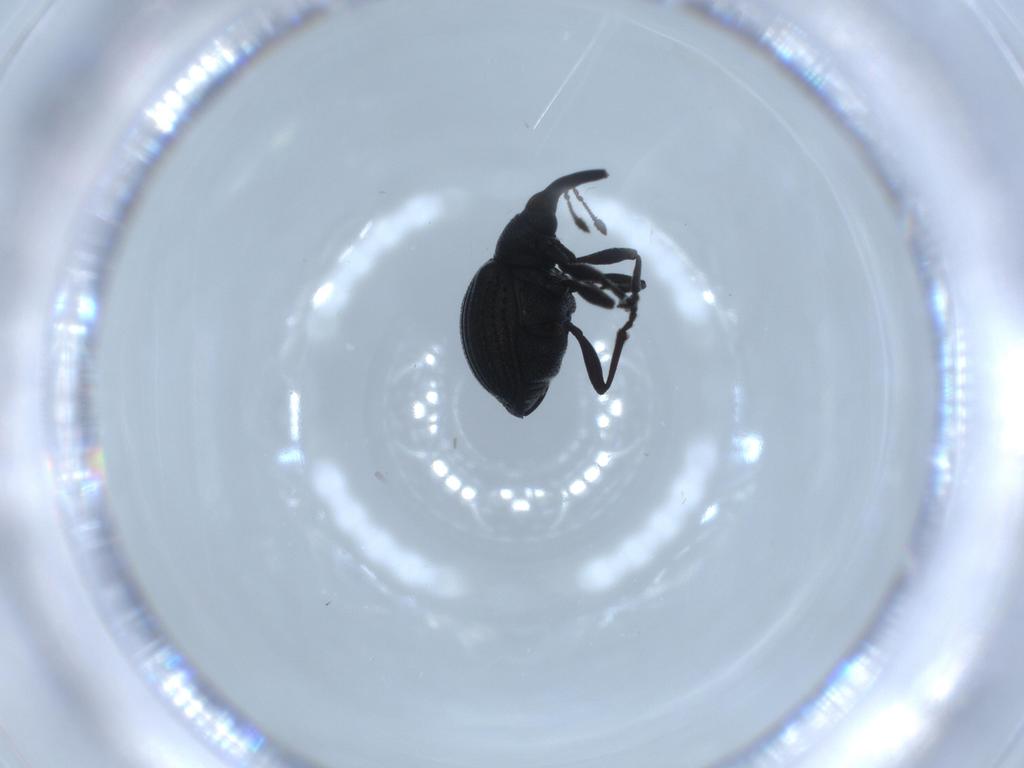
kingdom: Animalia
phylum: Arthropoda
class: Insecta
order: Coleoptera
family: Brentidae
